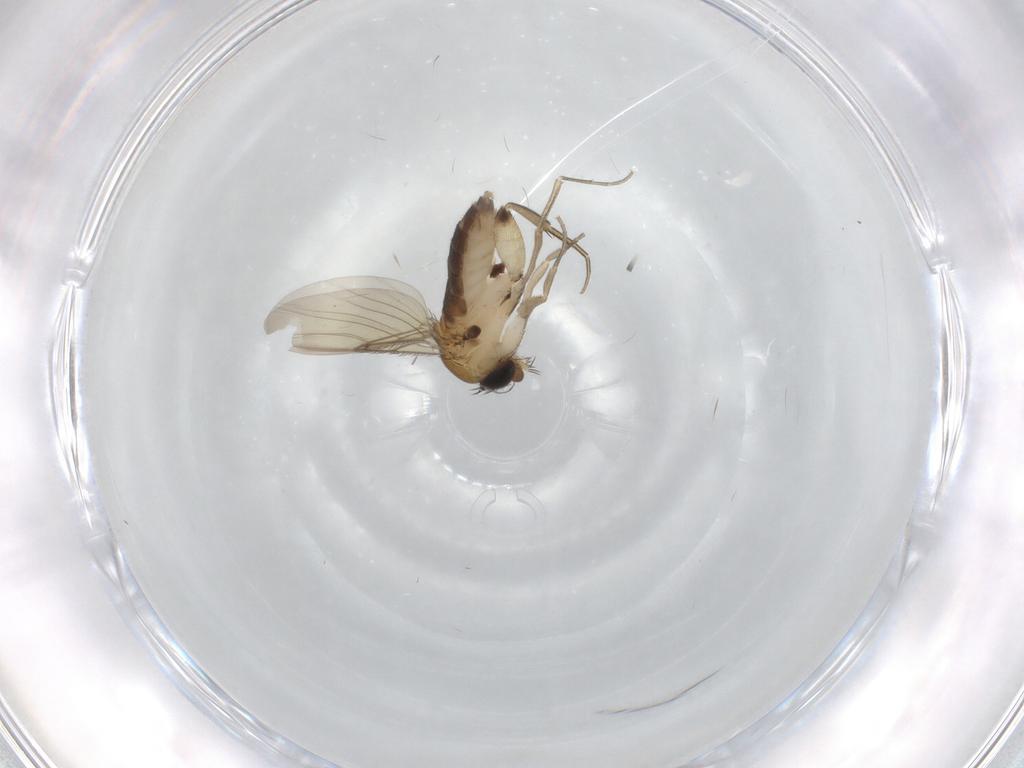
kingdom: Animalia
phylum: Arthropoda
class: Insecta
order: Diptera
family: Phoridae
